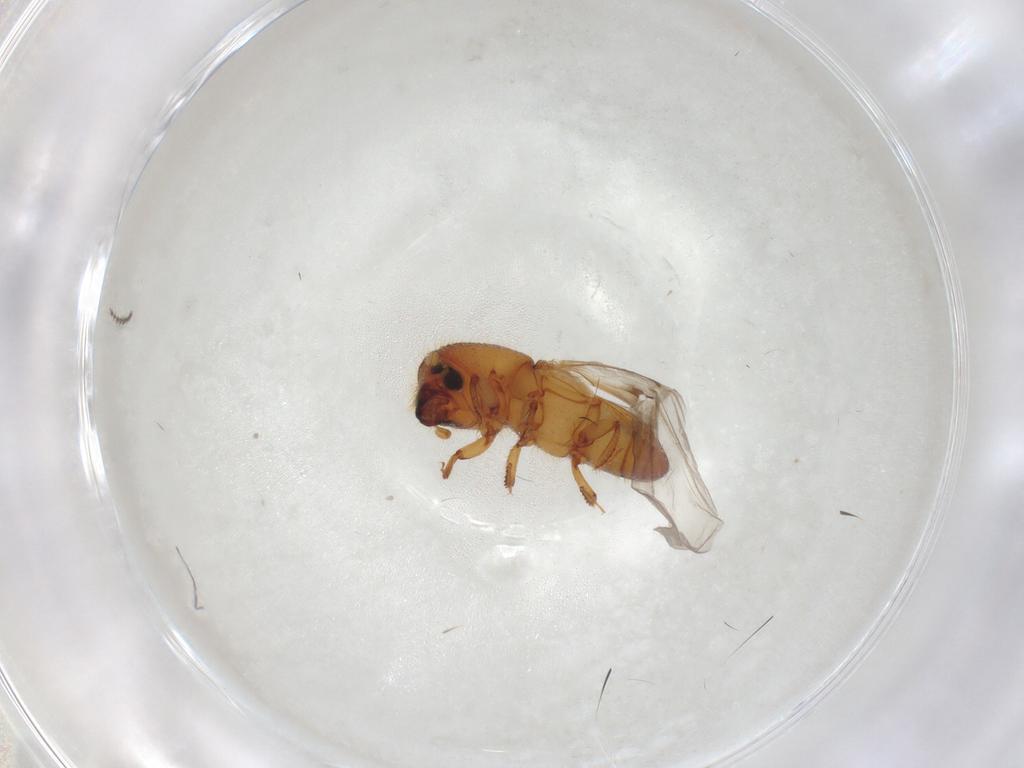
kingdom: Animalia
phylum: Arthropoda
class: Insecta
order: Coleoptera
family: Curculionidae
